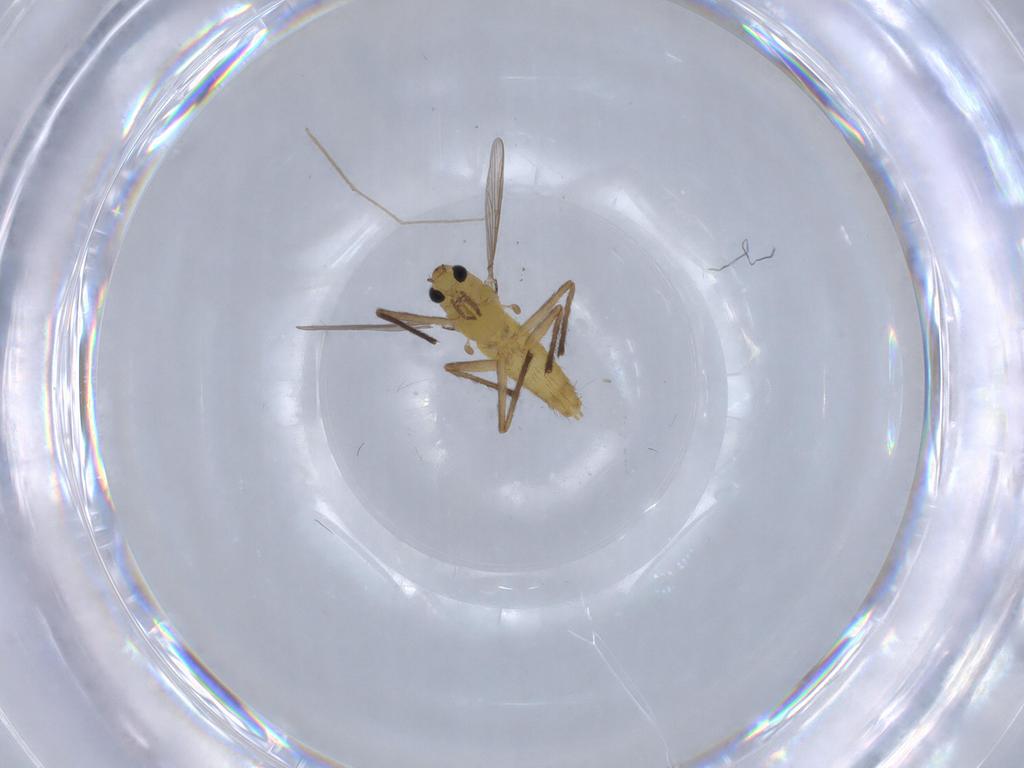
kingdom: Animalia
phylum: Arthropoda
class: Insecta
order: Diptera
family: Chironomidae
